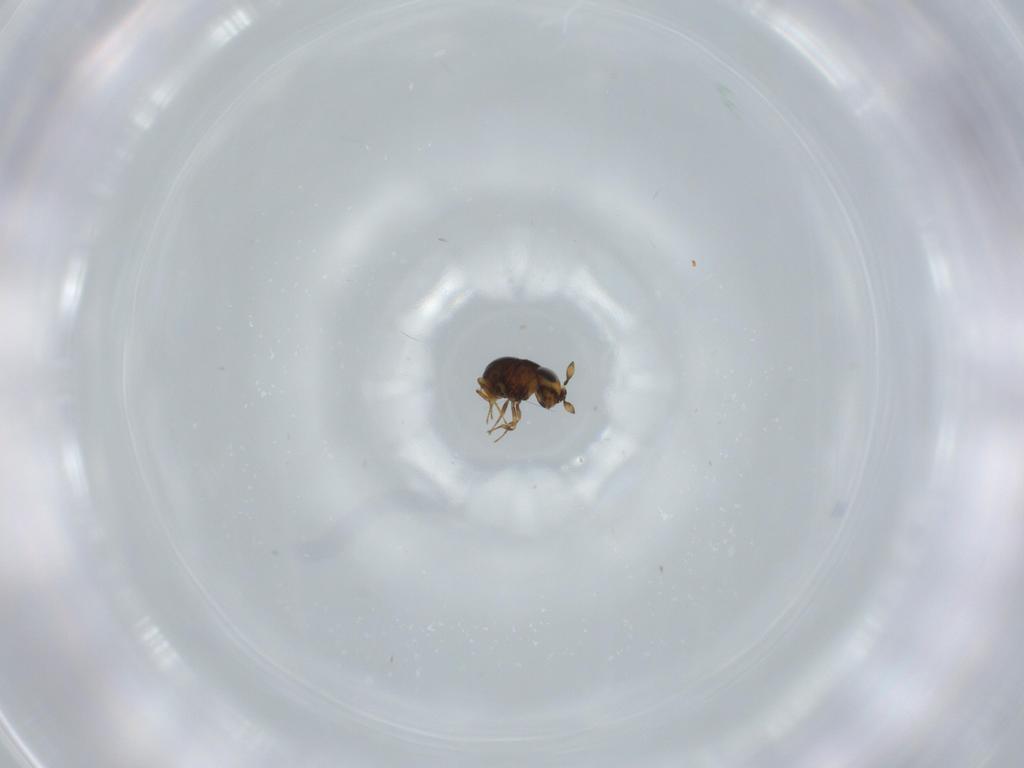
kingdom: Animalia
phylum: Arthropoda
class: Insecta
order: Hymenoptera
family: Scelionidae
